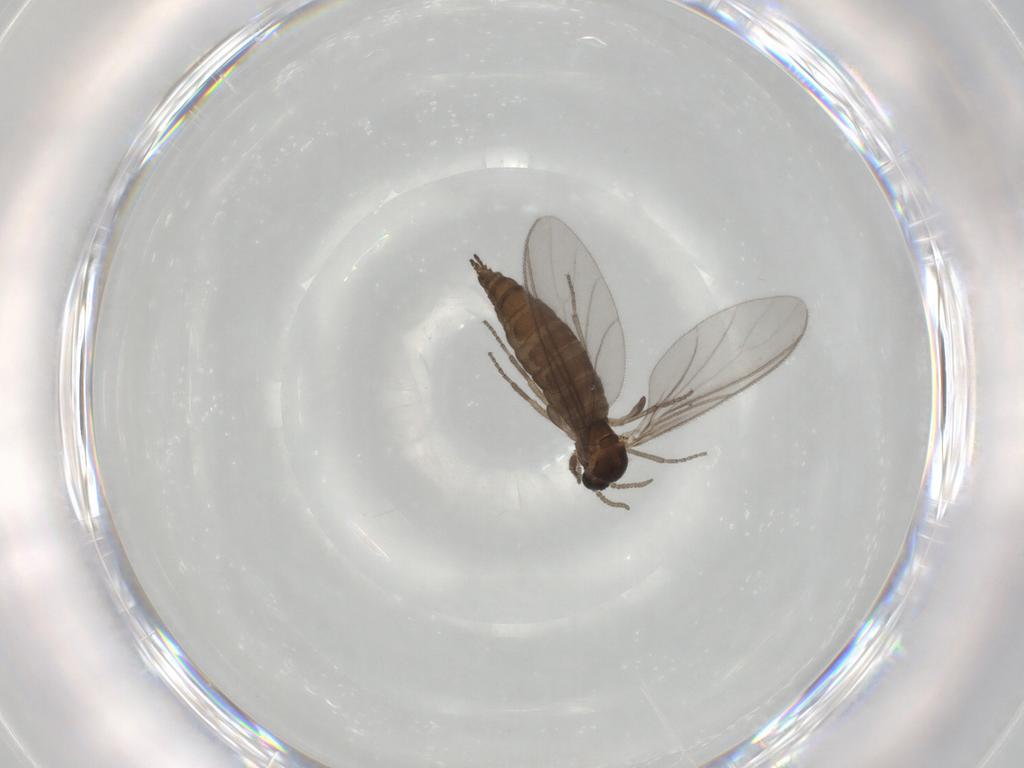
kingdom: Animalia
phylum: Arthropoda
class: Insecta
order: Diptera
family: Sciaridae
